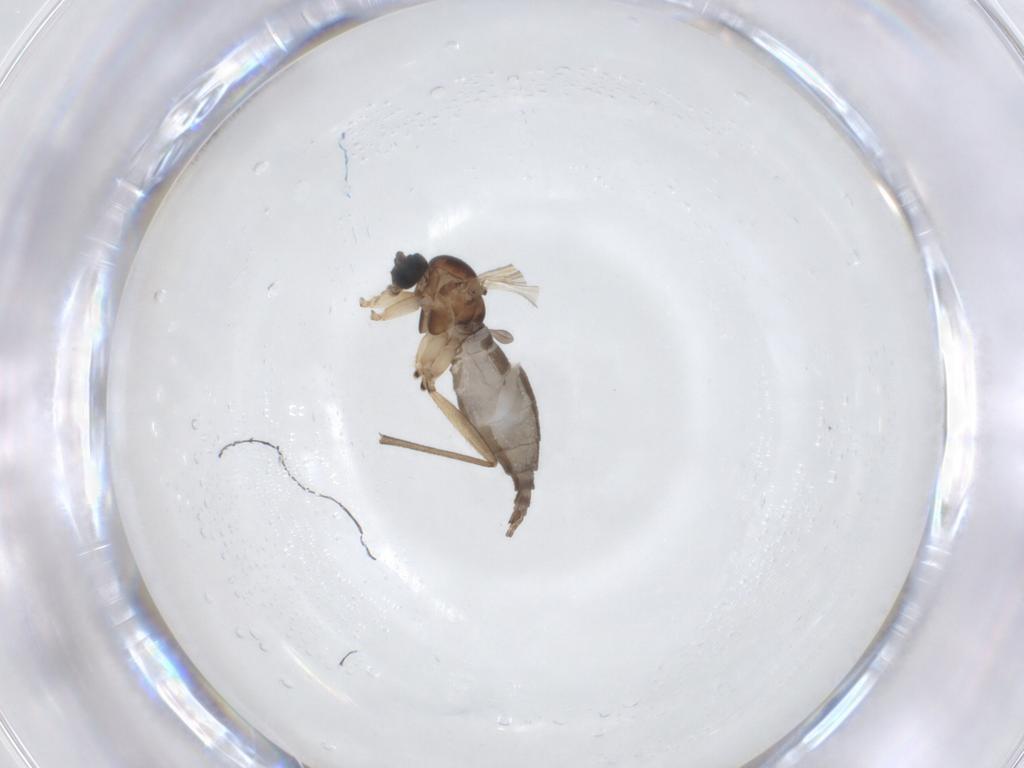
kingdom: Animalia
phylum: Arthropoda
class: Insecta
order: Diptera
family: Sciaridae
